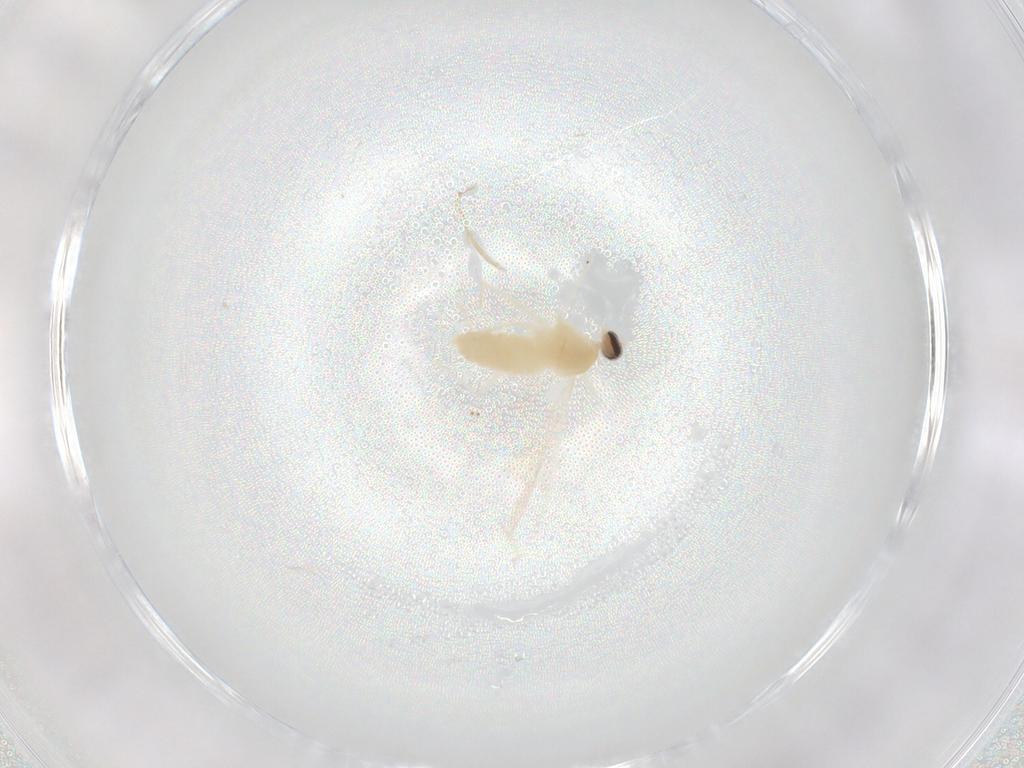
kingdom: Animalia
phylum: Arthropoda
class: Insecta
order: Diptera
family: Cecidomyiidae
